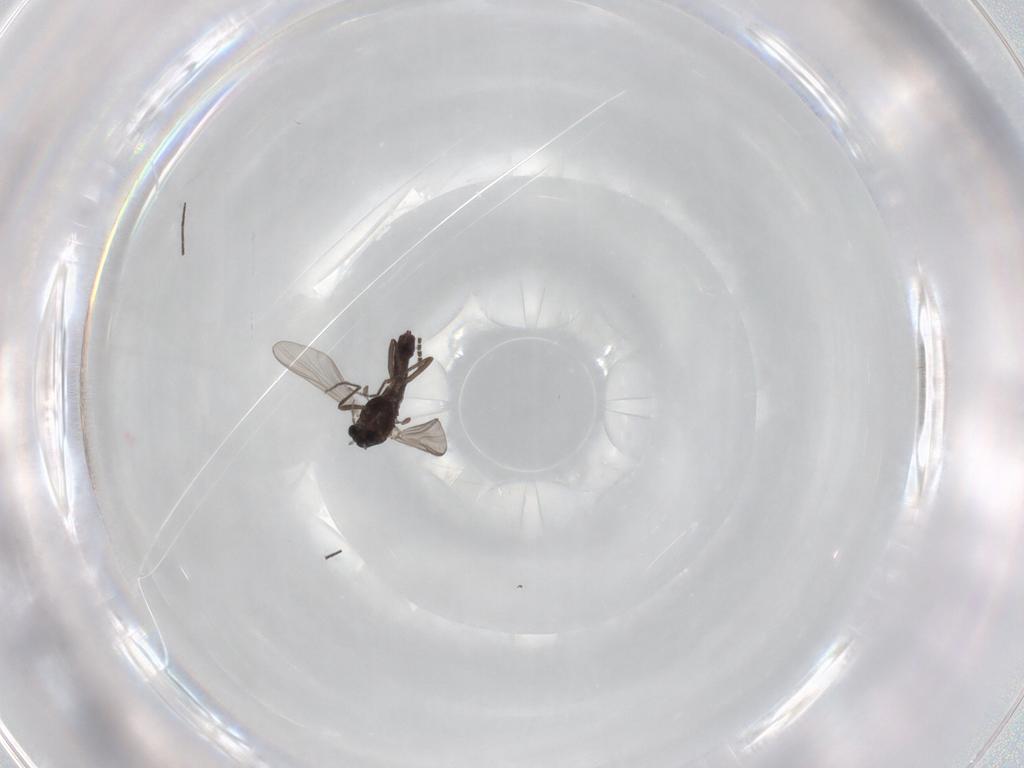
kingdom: Animalia
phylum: Arthropoda
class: Insecta
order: Diptera
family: Chironomidae
